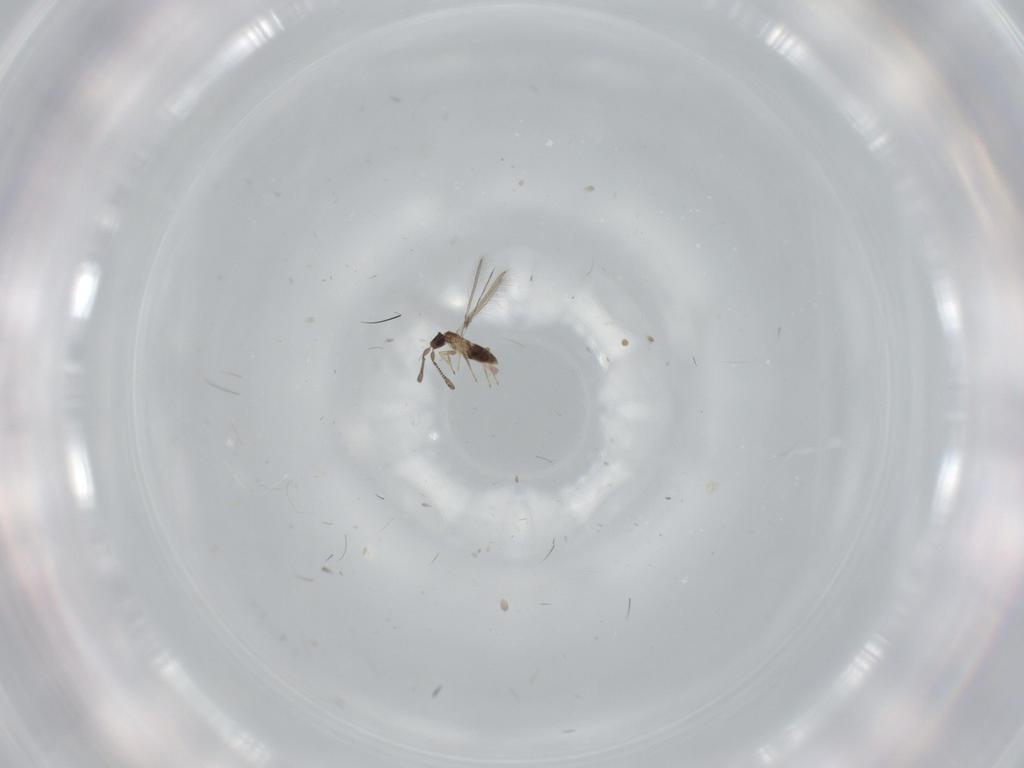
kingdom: Animalia
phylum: Arthropoda
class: Insecta
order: Hymenoptera
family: Mymaridae
